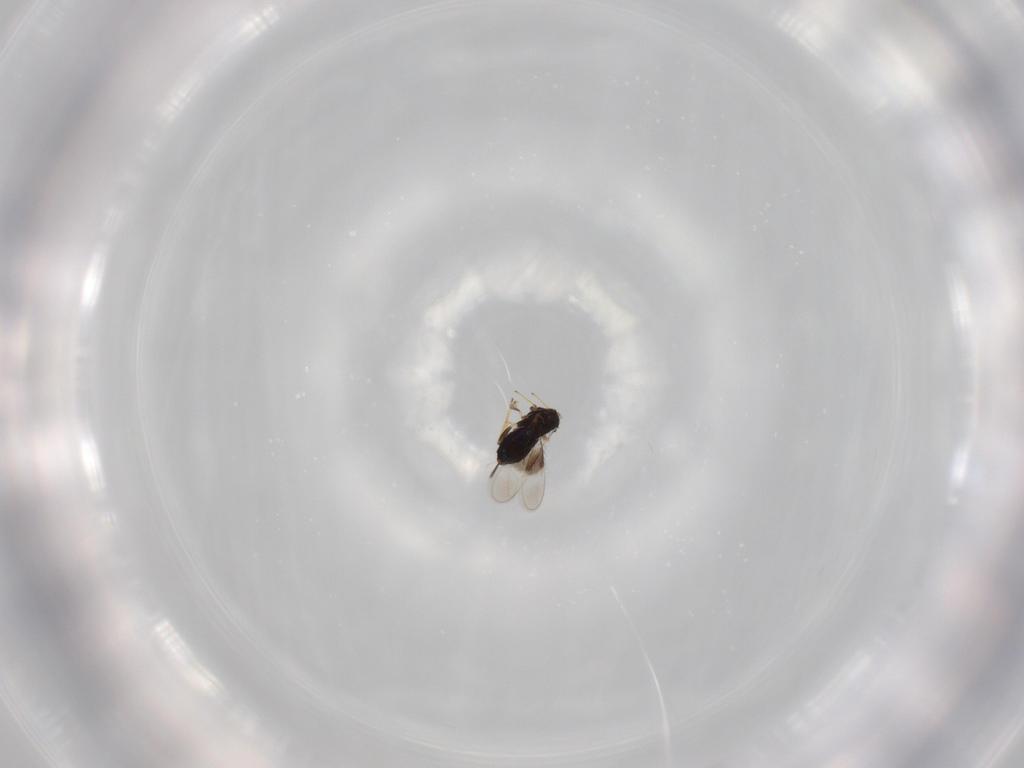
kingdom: Animalia
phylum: Arthropoda
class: Insecta
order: Hymenoptera
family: Azotidae
